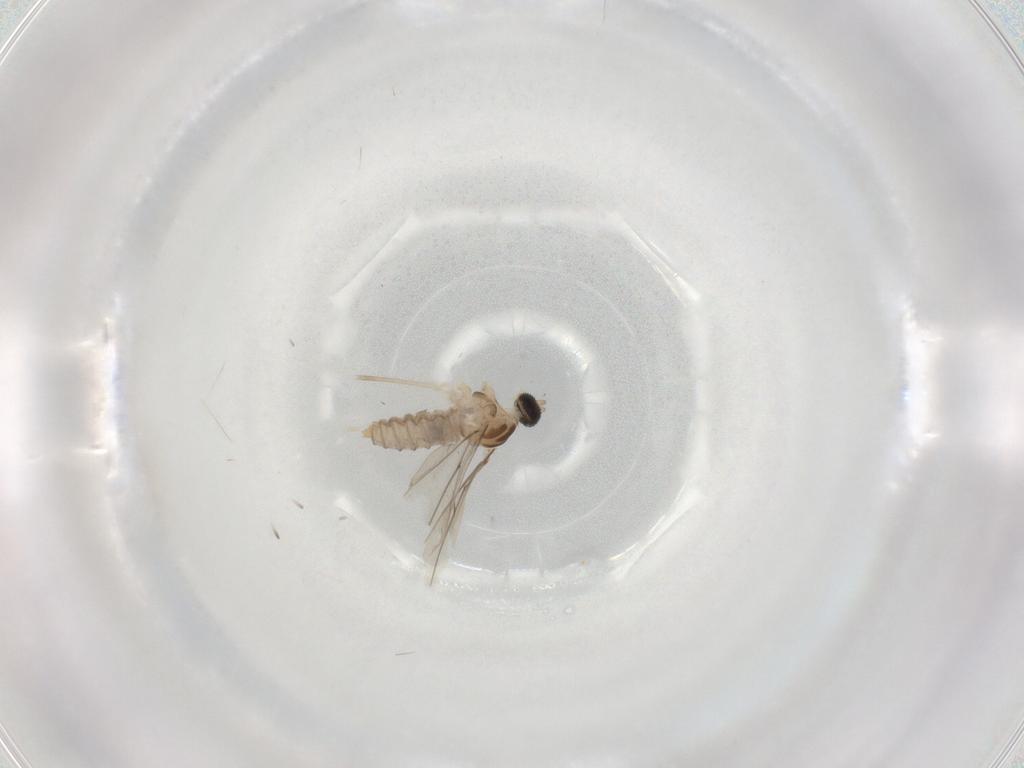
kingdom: Animalia
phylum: Arthropoda
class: Insecta
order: Diptera
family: Cecidomyiidae
